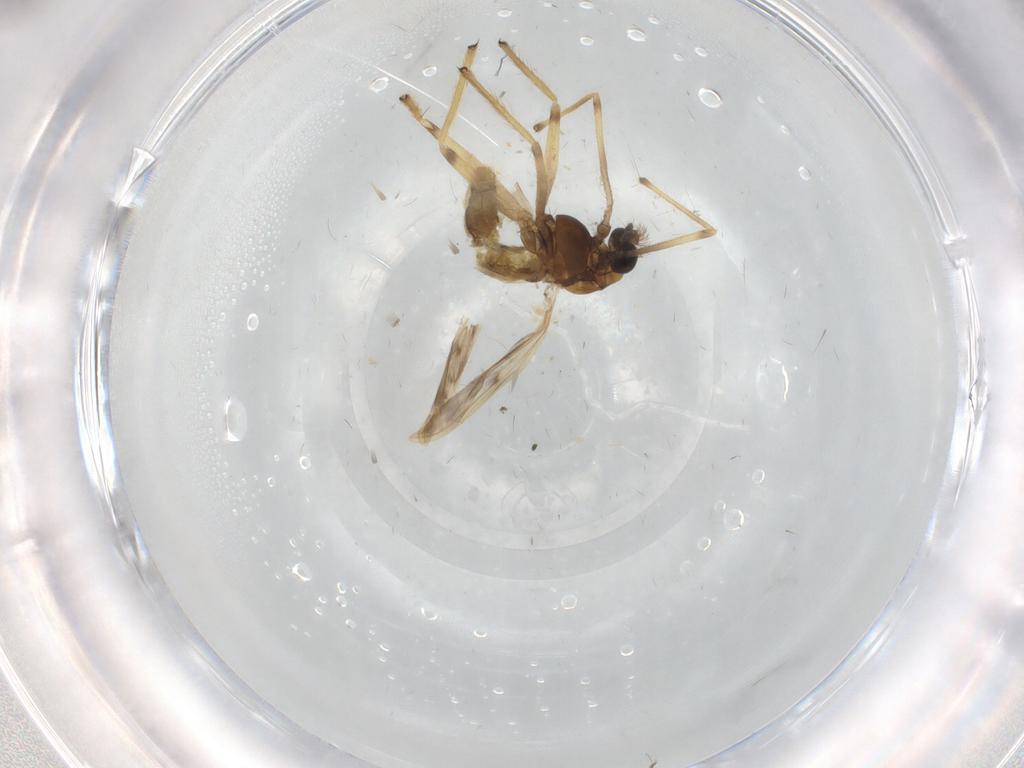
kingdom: Animalia
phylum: Arthropoda
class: Insecta
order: Diptera
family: Chironomidae
